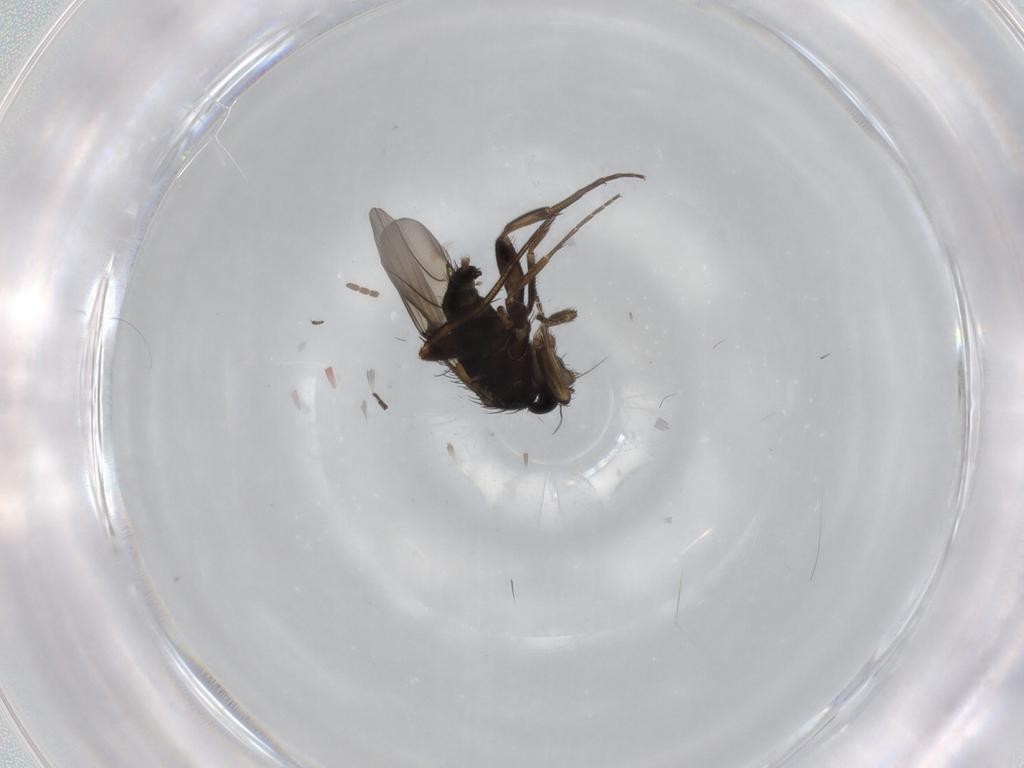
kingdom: Animalia
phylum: Arthropoda
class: Insecta
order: Diptera
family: Phoridae
